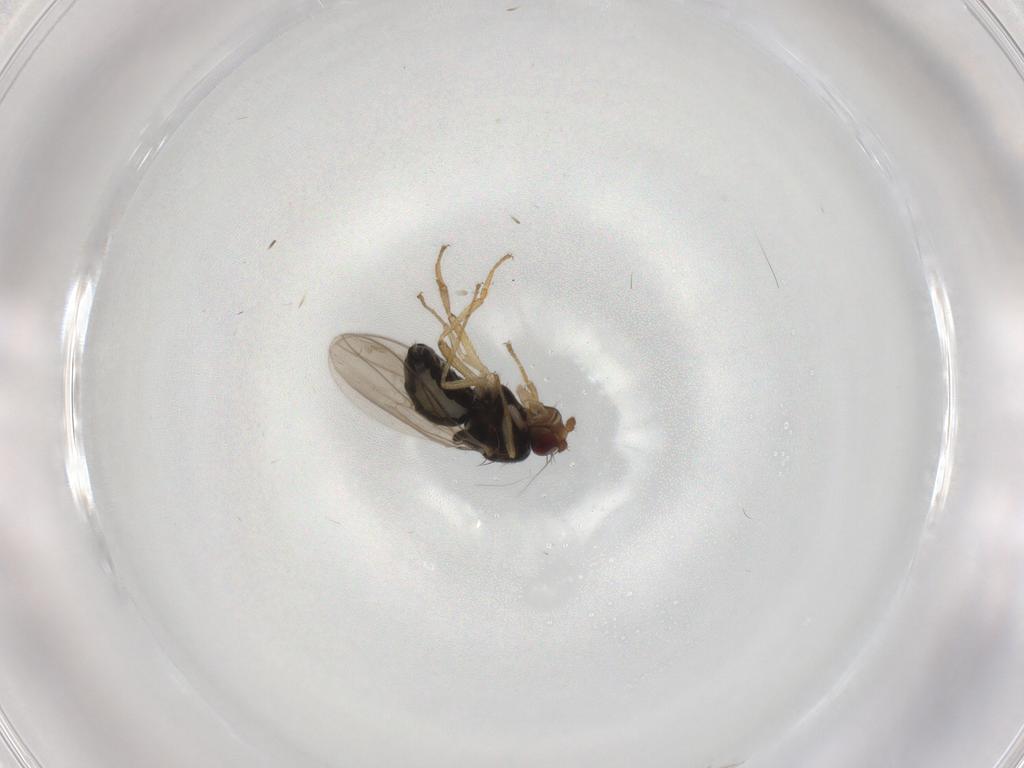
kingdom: Animalia
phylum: Arthropoda
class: Insecta
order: Diptera
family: Sphaeroceridae
